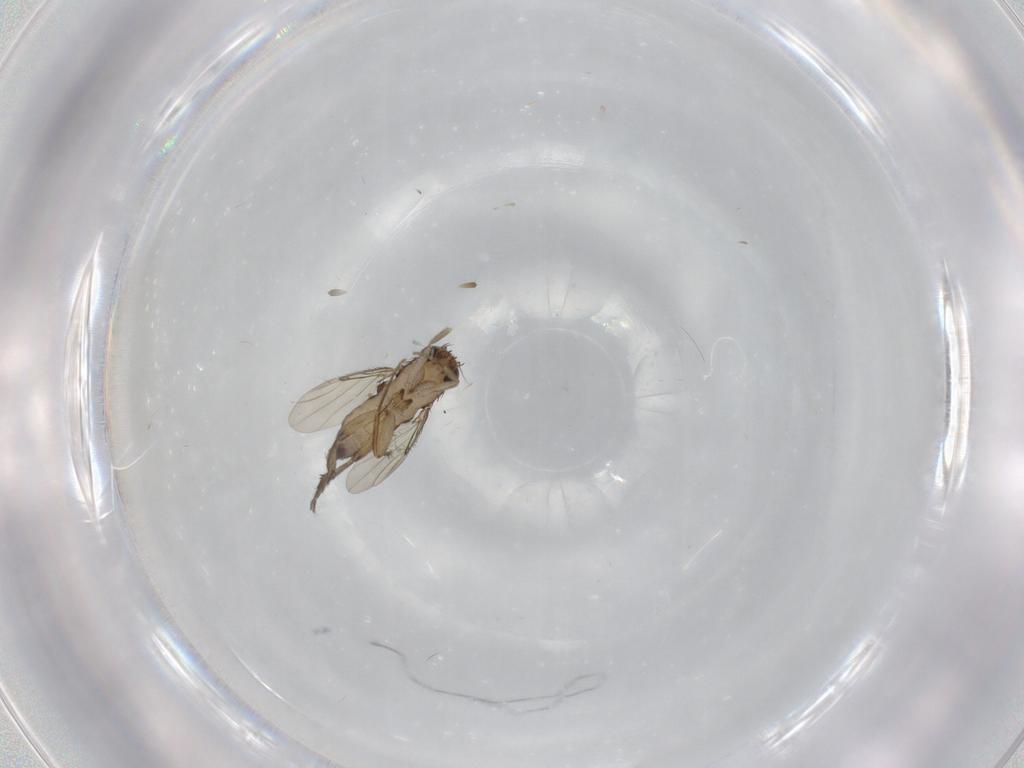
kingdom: Animalia
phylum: Arthropoda
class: Insecta
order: Diptera
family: Phoridae
